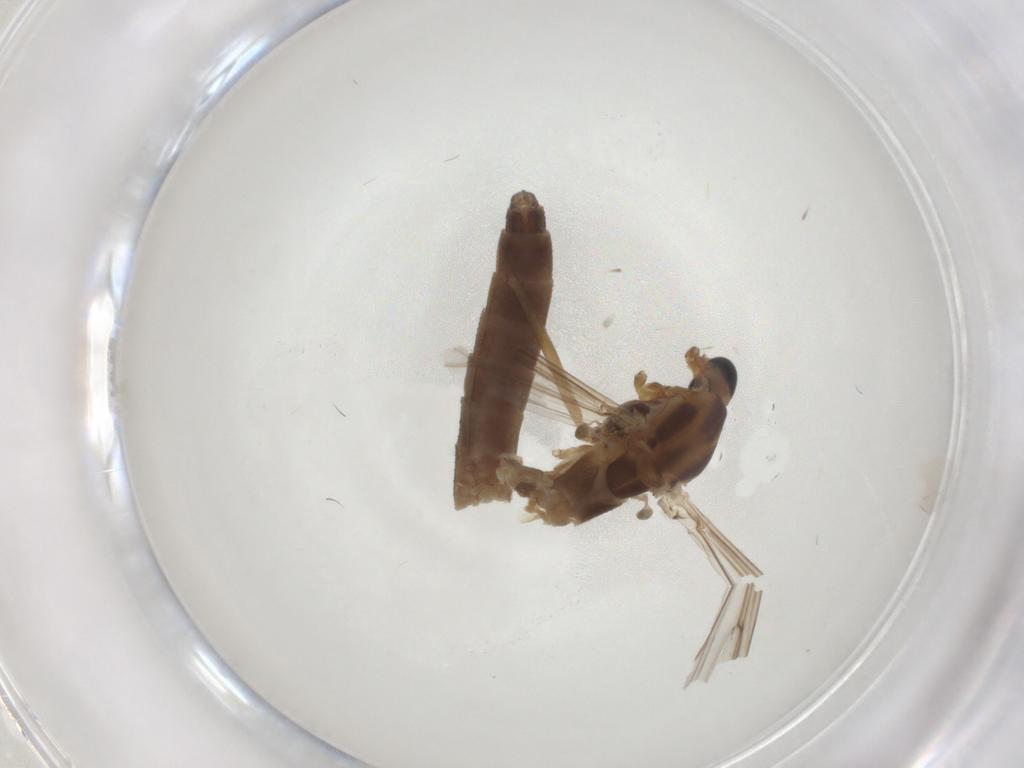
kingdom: Animalia
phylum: Arthropoda
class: Insecta
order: Diptera
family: Chironomidae
